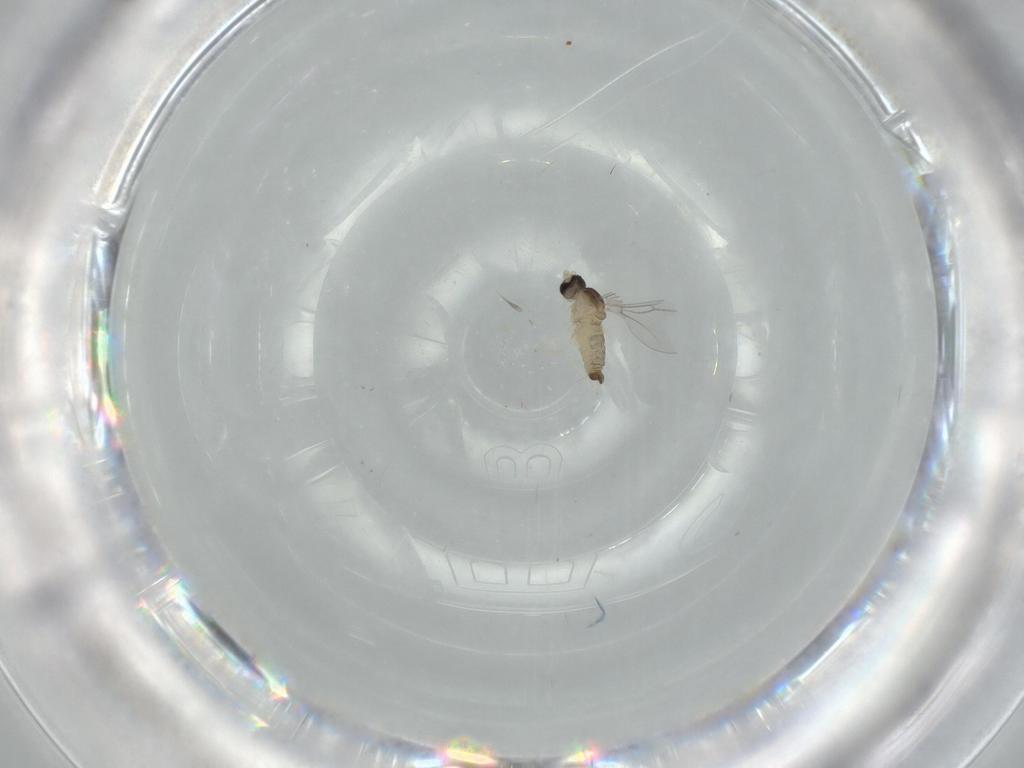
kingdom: Animalia
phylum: Arthropoda
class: Insecta
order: Diptera
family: Cecidomyiidae
